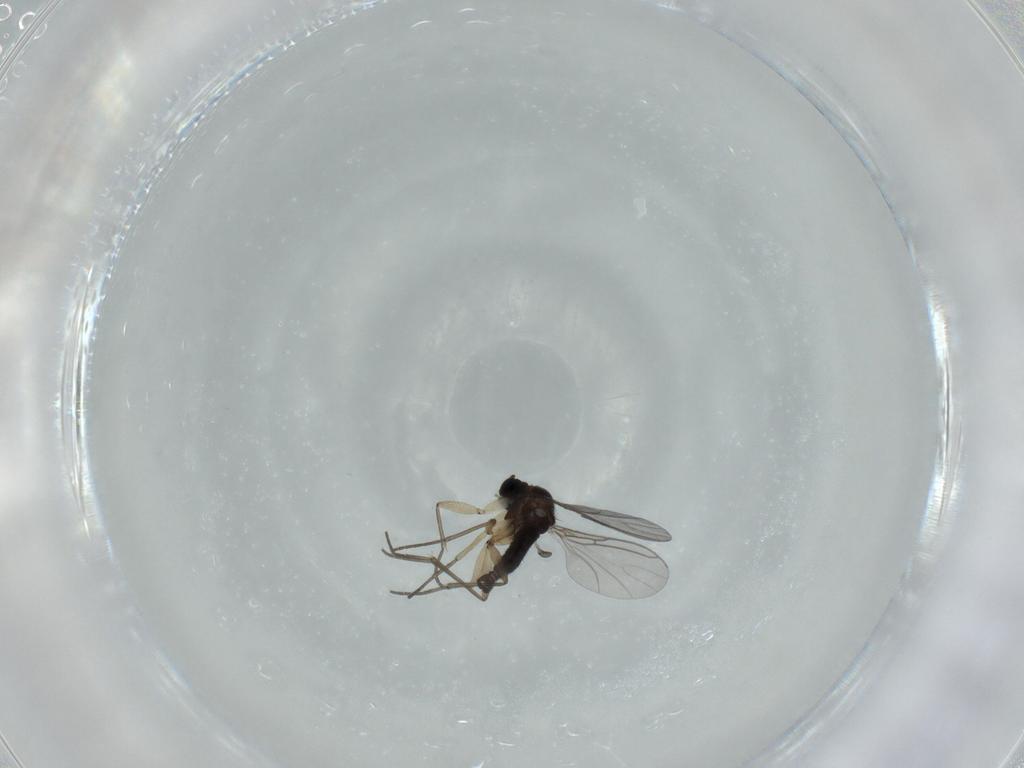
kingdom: Animalia
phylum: Arthropoda
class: Insecta
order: Diptera
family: Sciaridae
